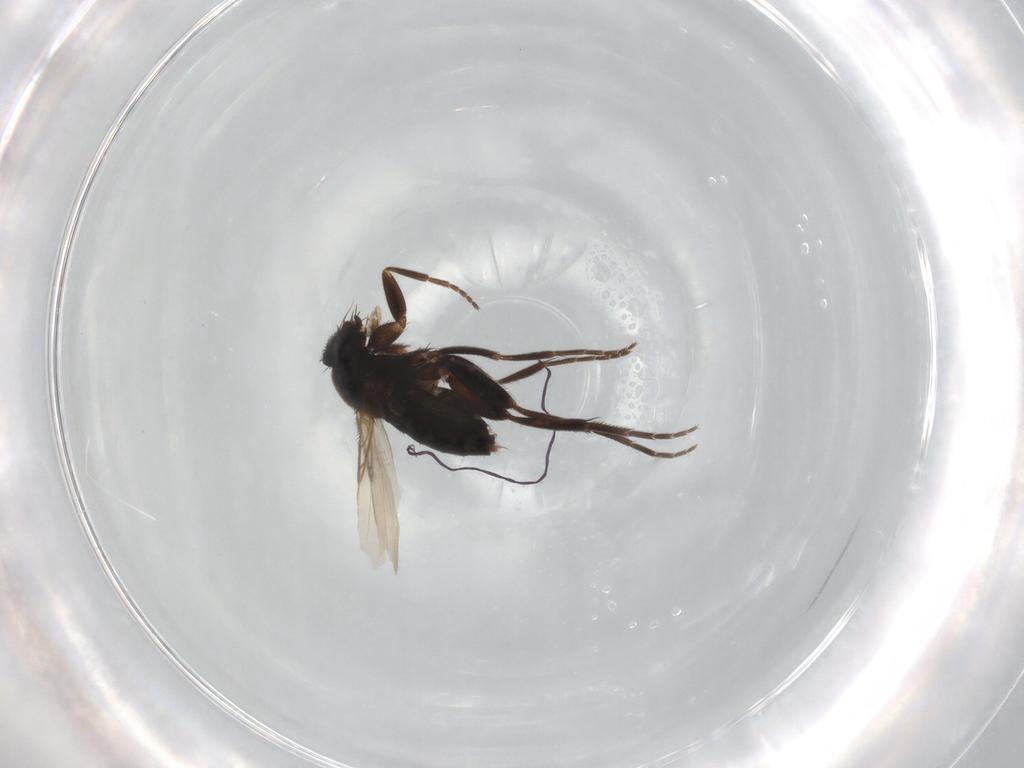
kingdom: Animalia
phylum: Arthropoda
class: Insecta
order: Diptera
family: Phoridae
